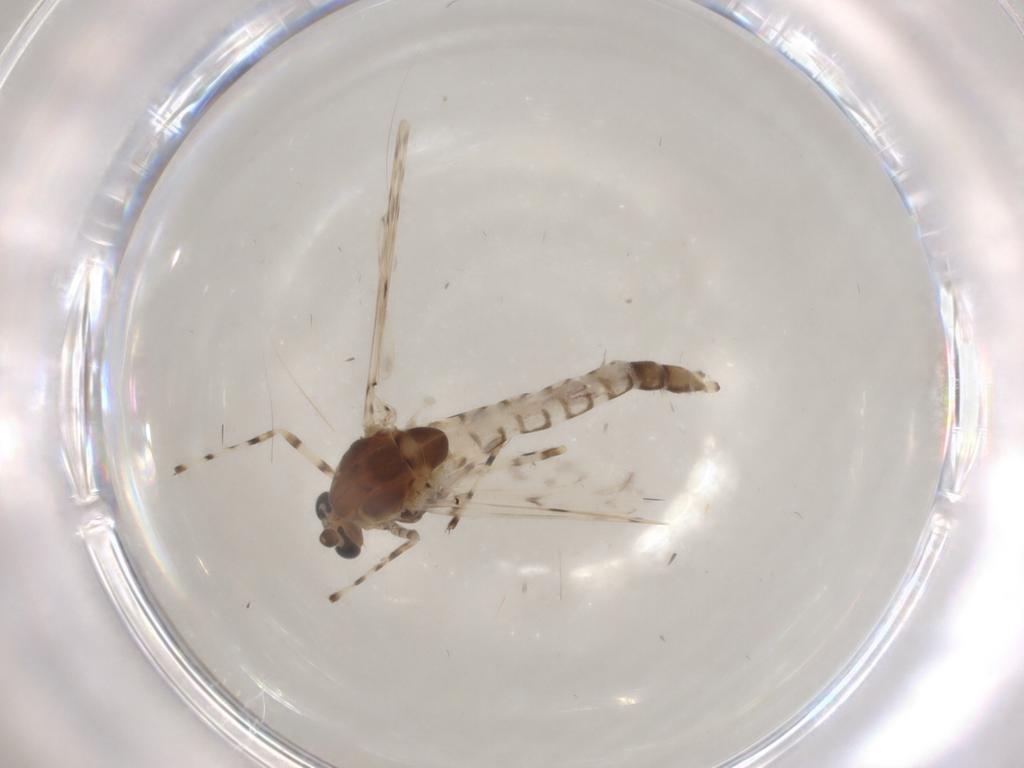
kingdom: Animalia
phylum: Arthropoda
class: Insecta
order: Diptera
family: Chironomidae
